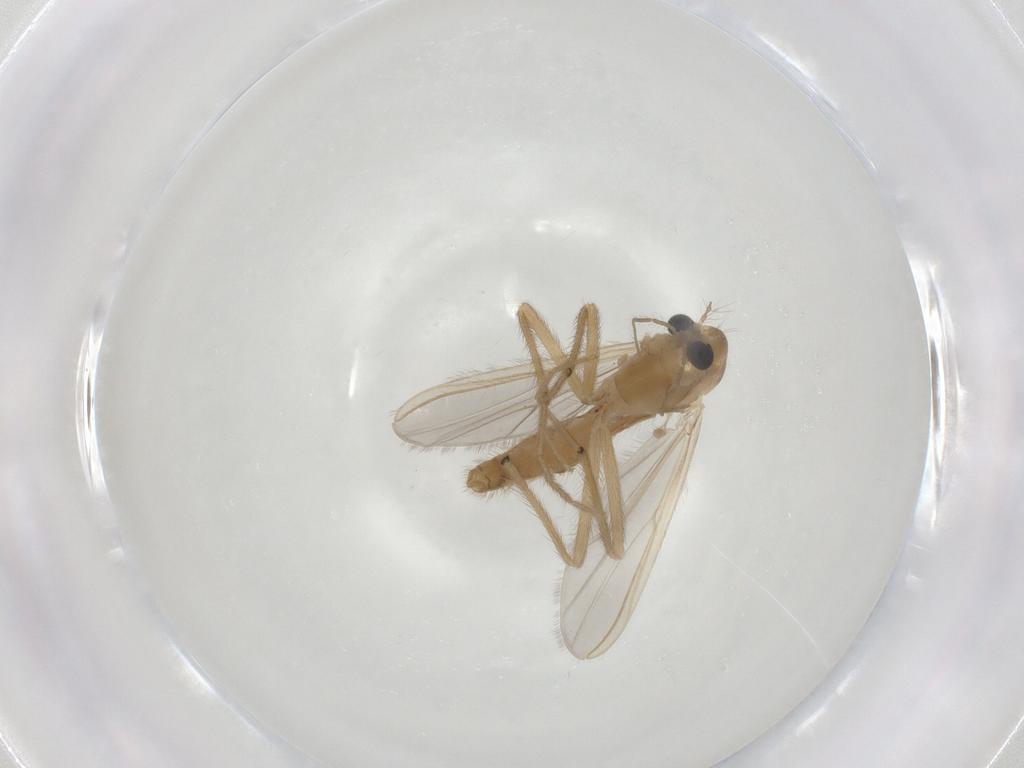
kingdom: Animalia
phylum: Arthropoda
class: Insecta
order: Diptera
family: Chironomidae
